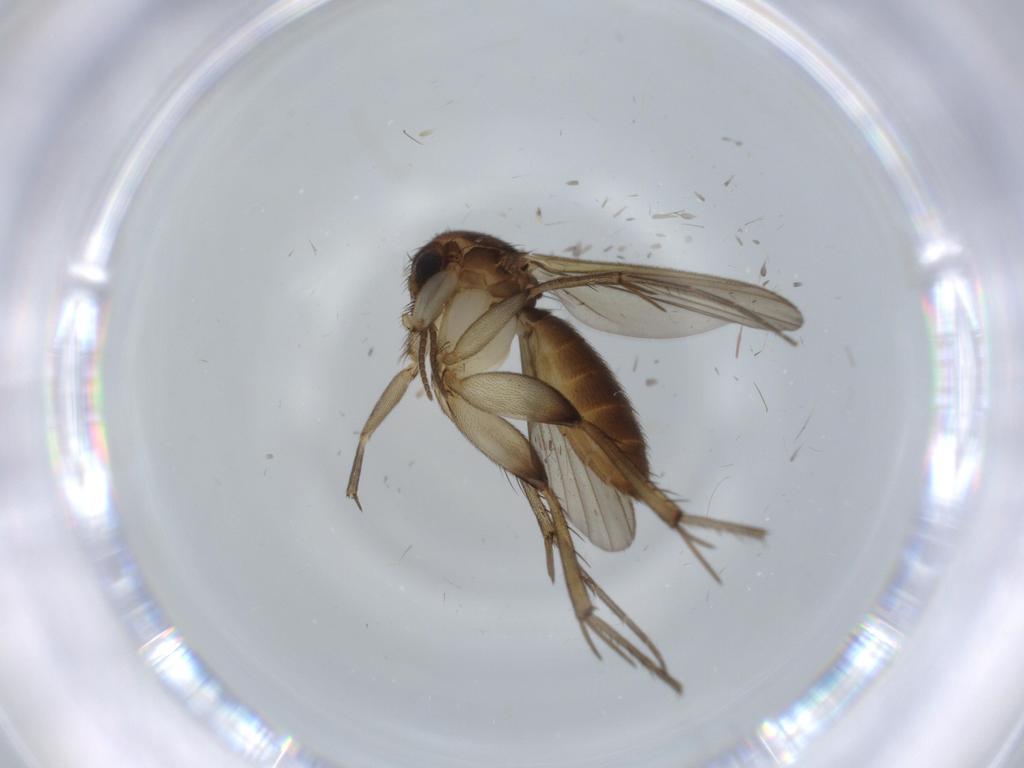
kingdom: Animalia
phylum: Arthropoda
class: Insecta
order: Diptera
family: Mycetophilidae
